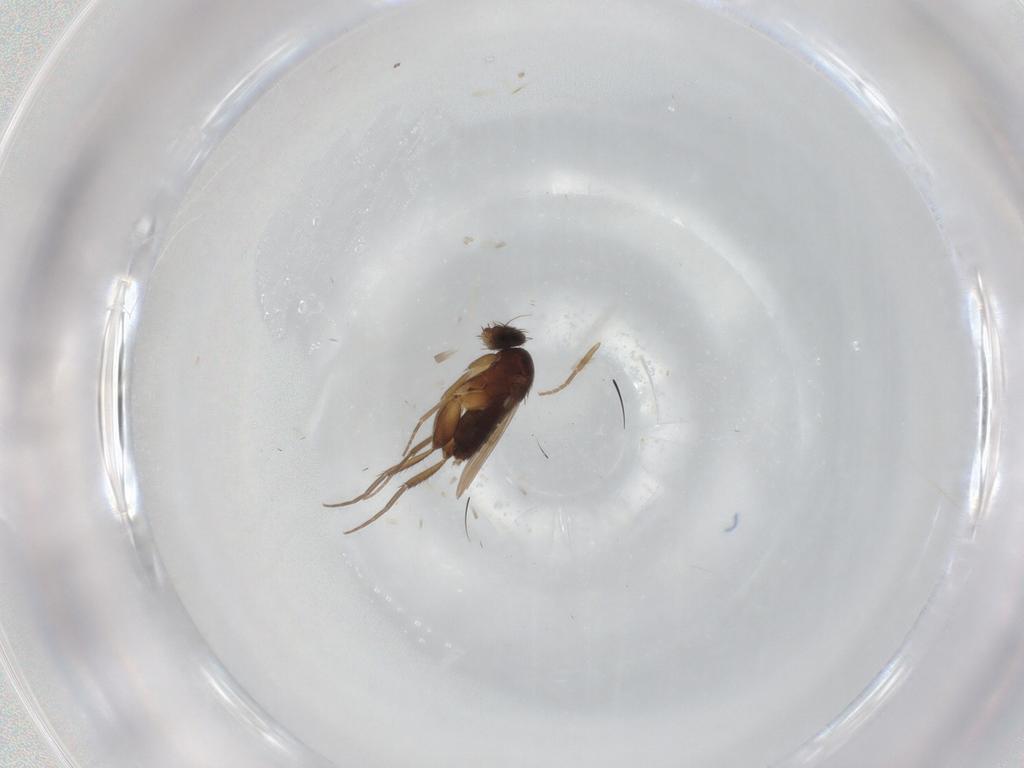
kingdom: Animalia
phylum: Arthropoda
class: Insecta
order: Diptera
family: Phoridae
